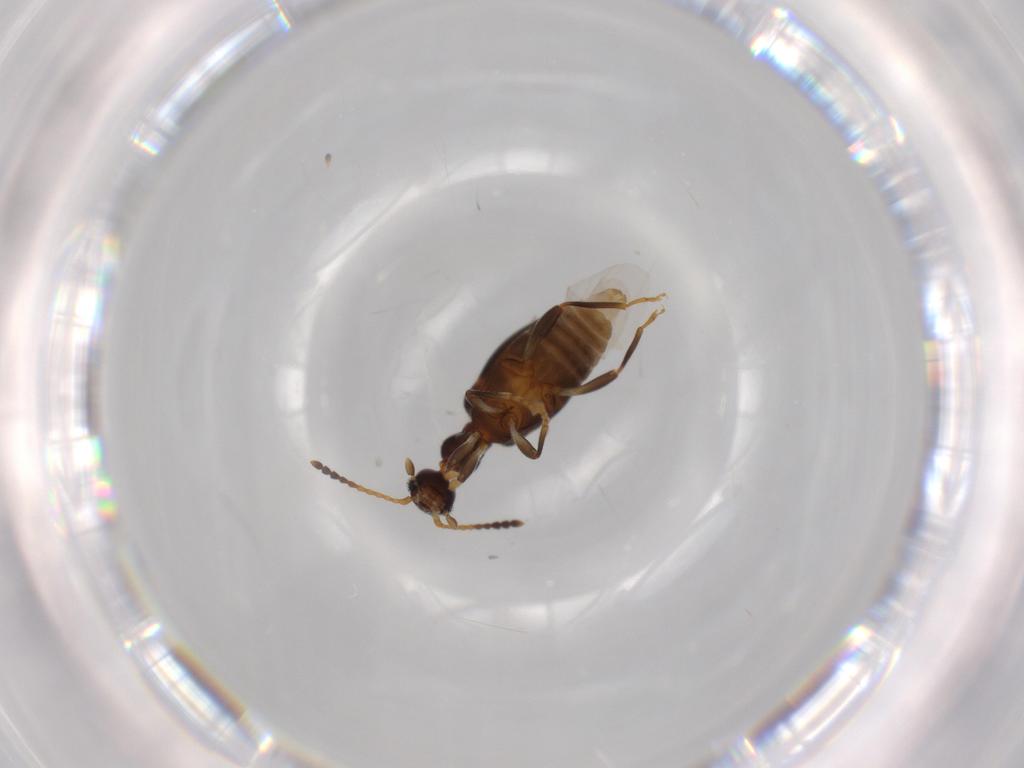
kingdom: Animalia
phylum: Arthropoda
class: Insecta
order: Coleoptera
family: Anthicidae
